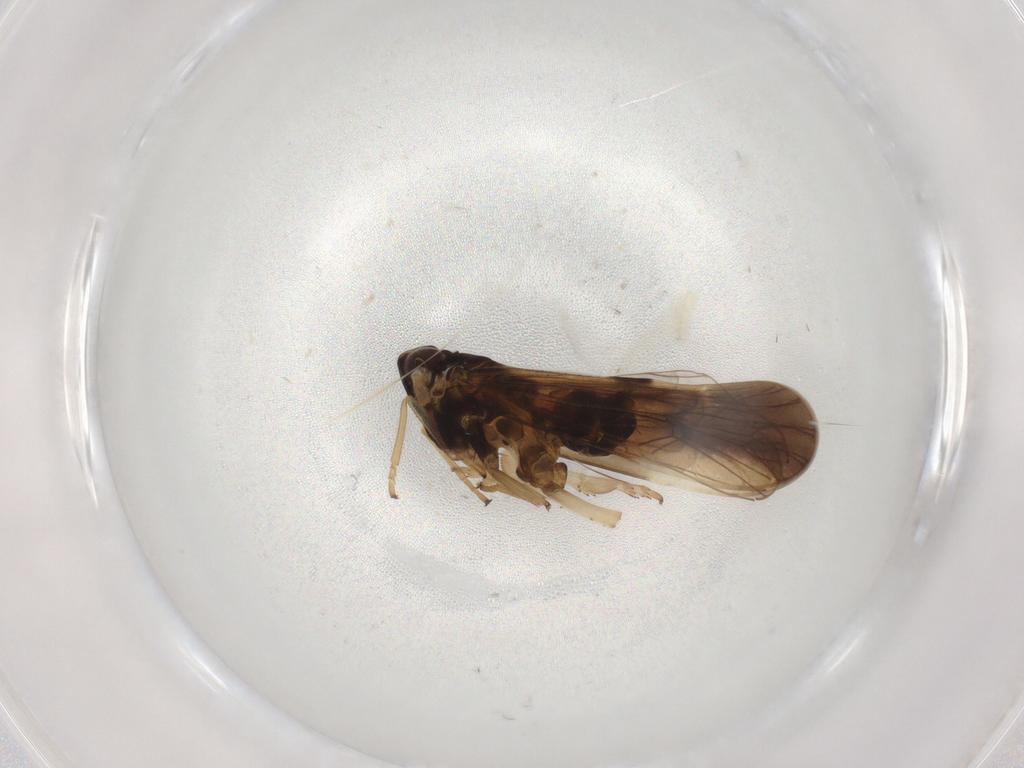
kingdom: Animalia
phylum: Arthropoda
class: Insecta
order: Hemiptera
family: Delphacidae
